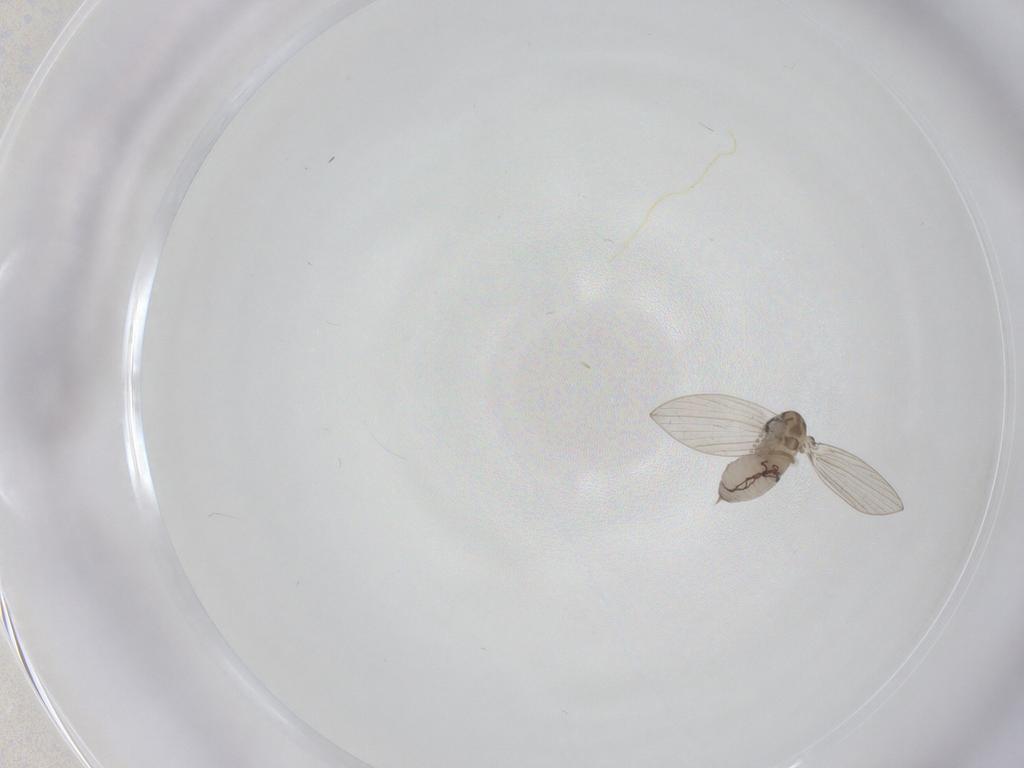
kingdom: Animalia
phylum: Arthropoda
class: Insecta
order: Diptera
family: Psychodidae
